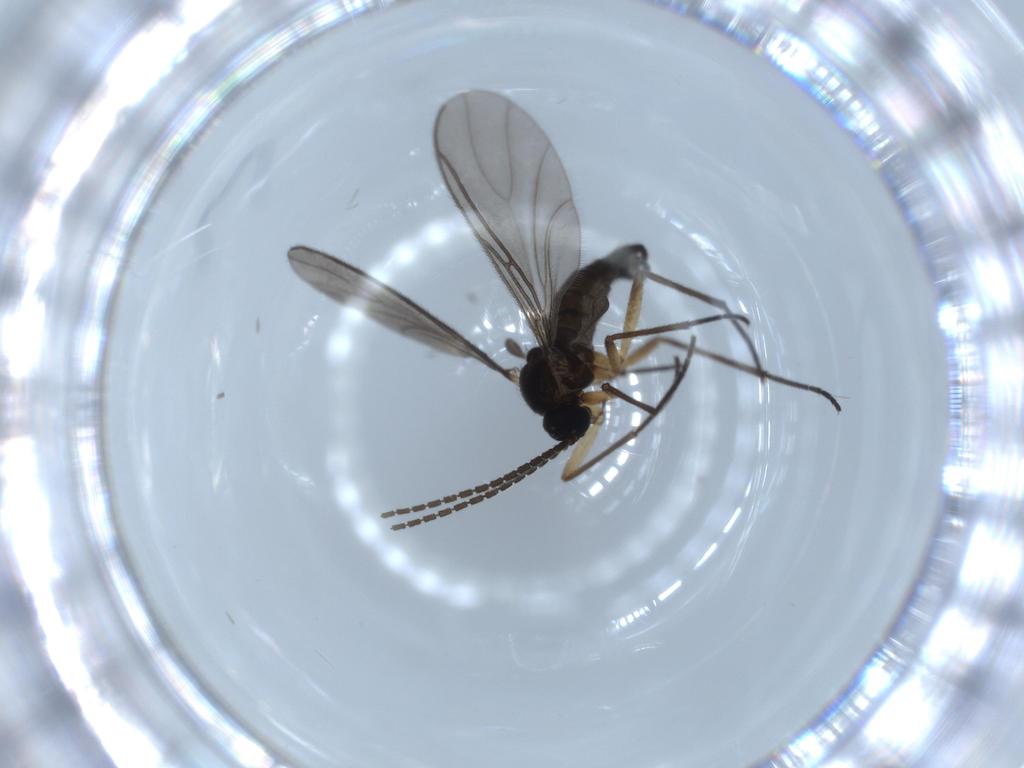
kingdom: Animalia
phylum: Arthropoda
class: Insecta
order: Diptera
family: Sciaridae
